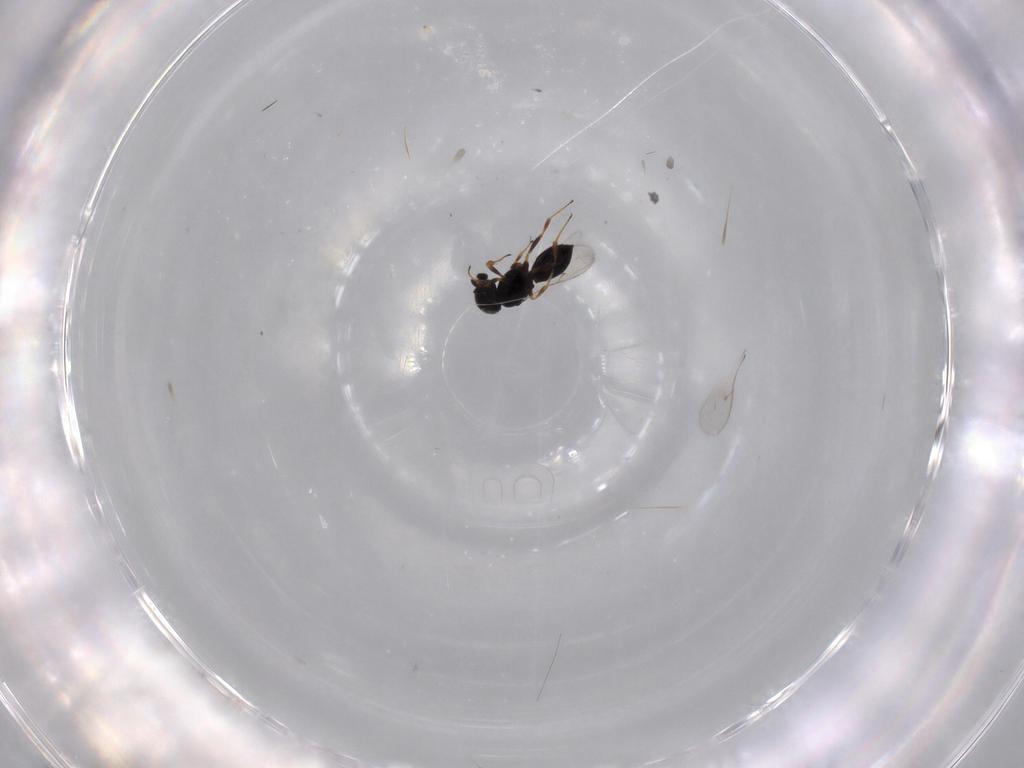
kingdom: Animalia
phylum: Arthropoda
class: Insecta
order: Hymenoptera
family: Scelionidae
